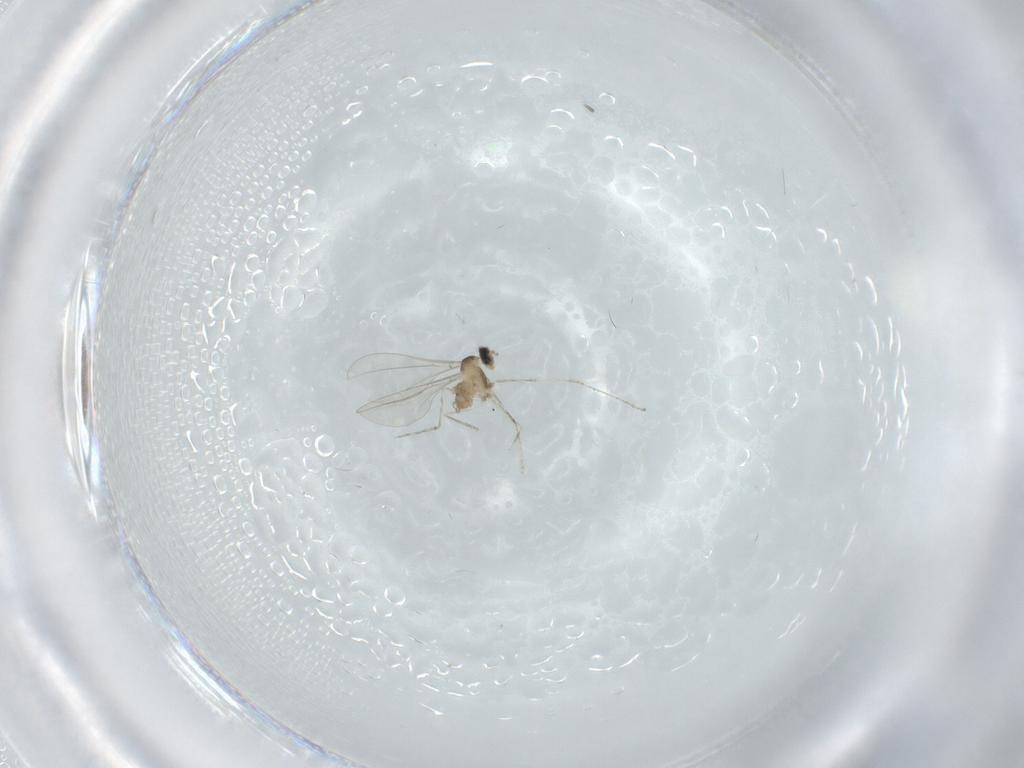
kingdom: Animalia
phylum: Arthropoda
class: Insecta
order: Diptera
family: Cecidomyiidae
